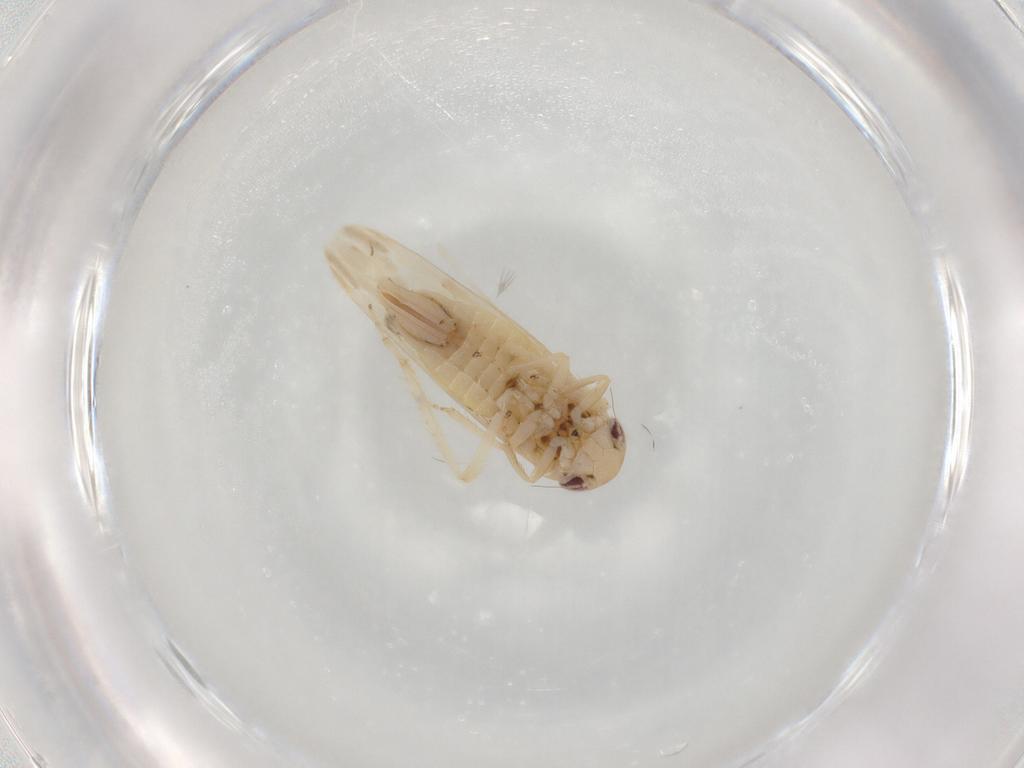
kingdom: Animalia
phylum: Arthropoda
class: Insecta
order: Hemiptera
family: Cicadellidae
